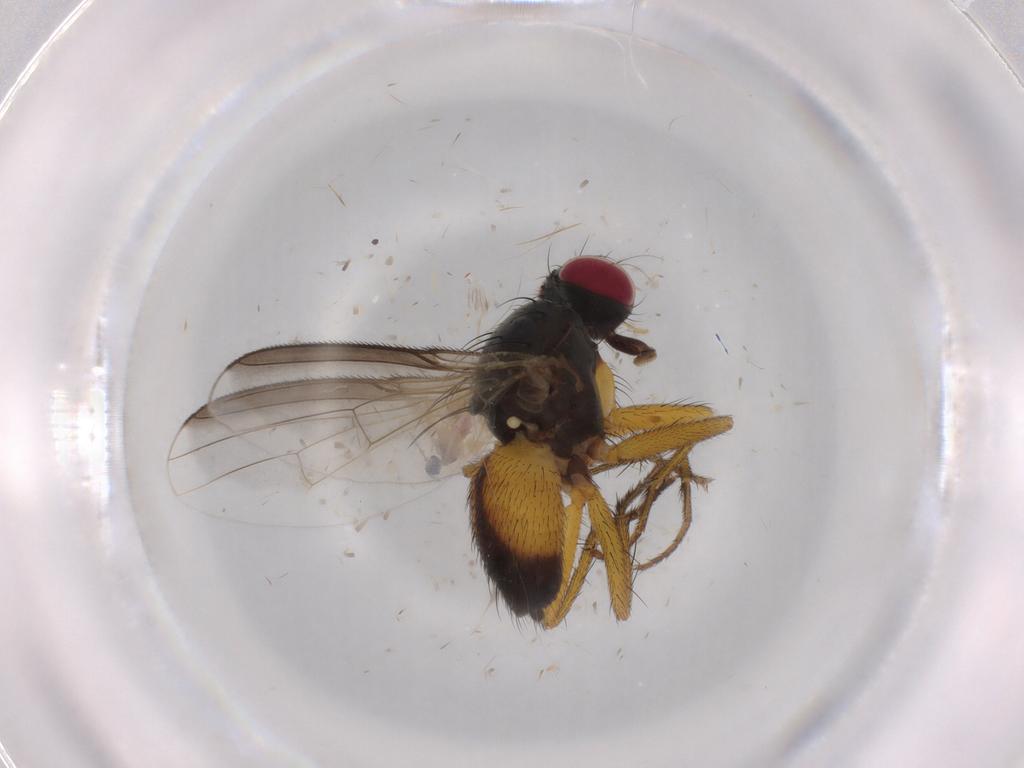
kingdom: Animalia
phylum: Arthropoda
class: Insecta
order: Diptera
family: Muscidae
